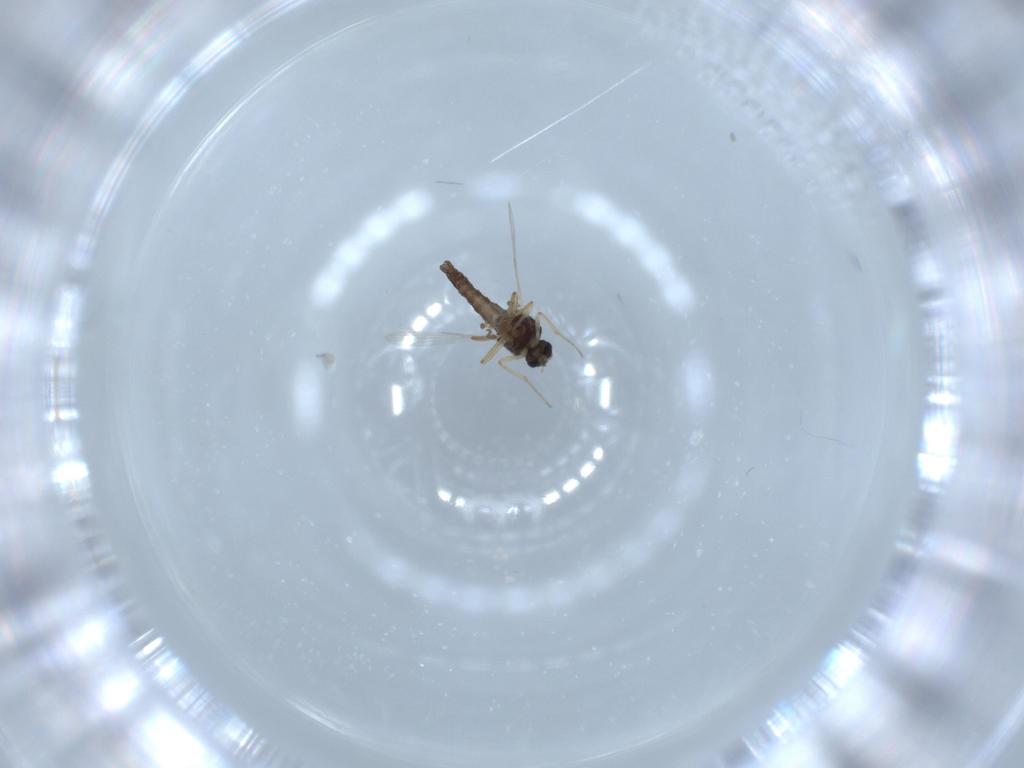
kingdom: Animalia
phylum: Arthropoda
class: Insecta
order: Diptera
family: Ceratopogonidae
